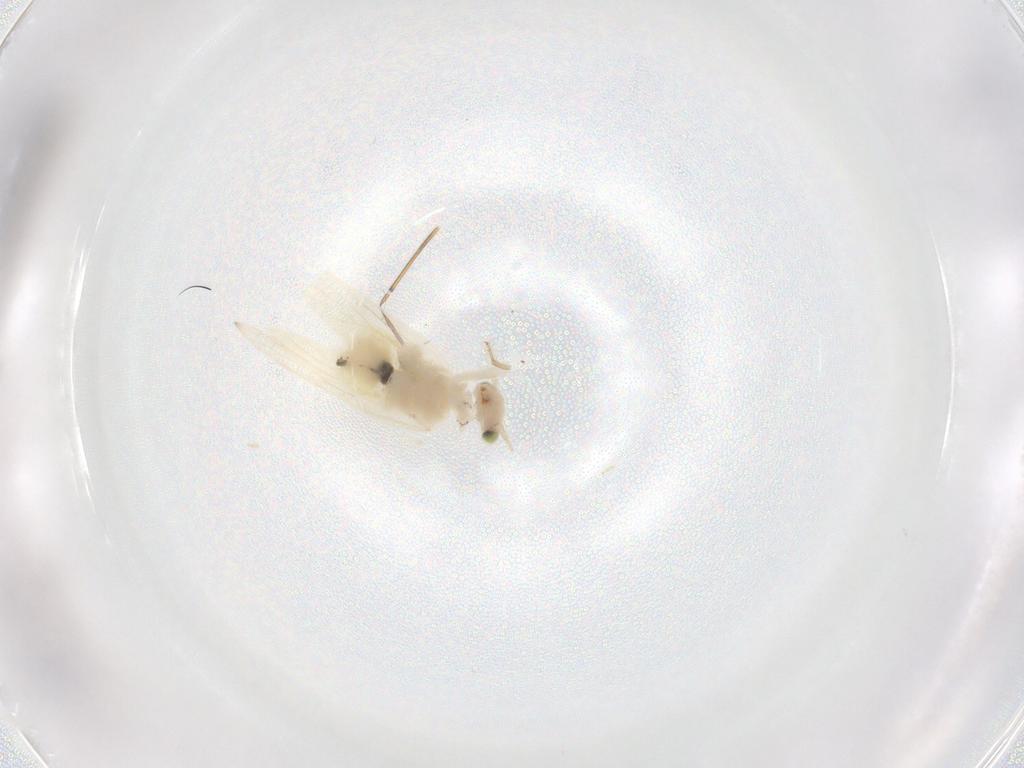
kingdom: Animalia
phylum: Arthropoda
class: Insecta
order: Psocodea
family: Lepidopsocidae
